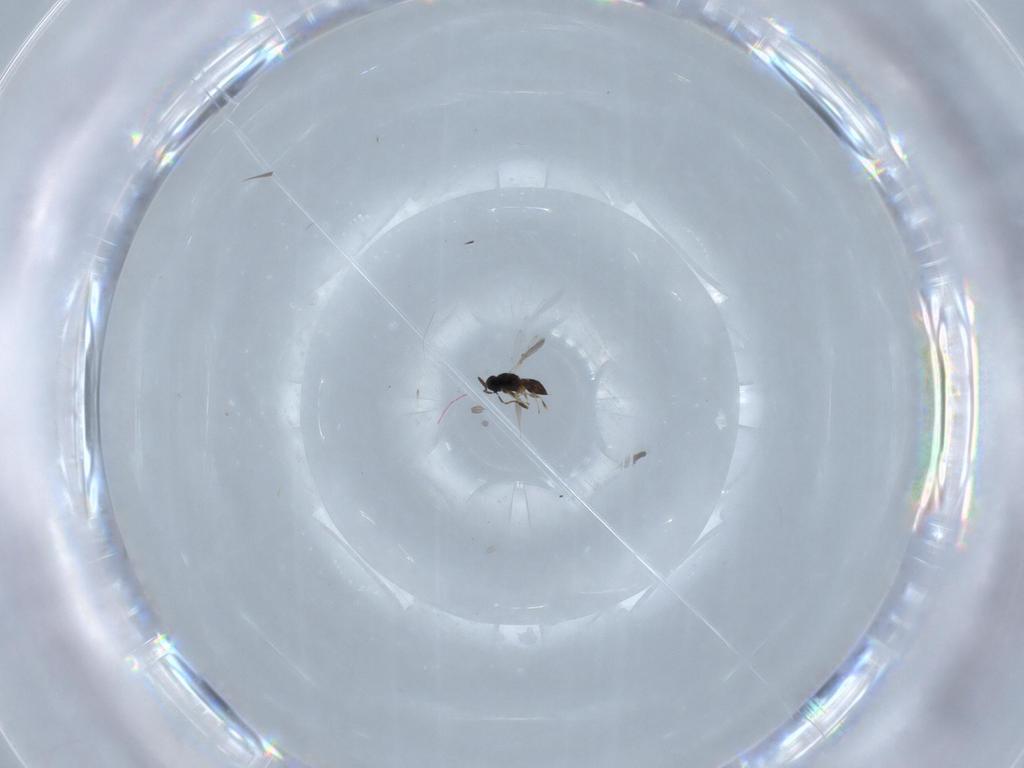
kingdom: Animalia
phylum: Arthropoda
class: Insecta
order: Hymenoptera
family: Scelionidae
